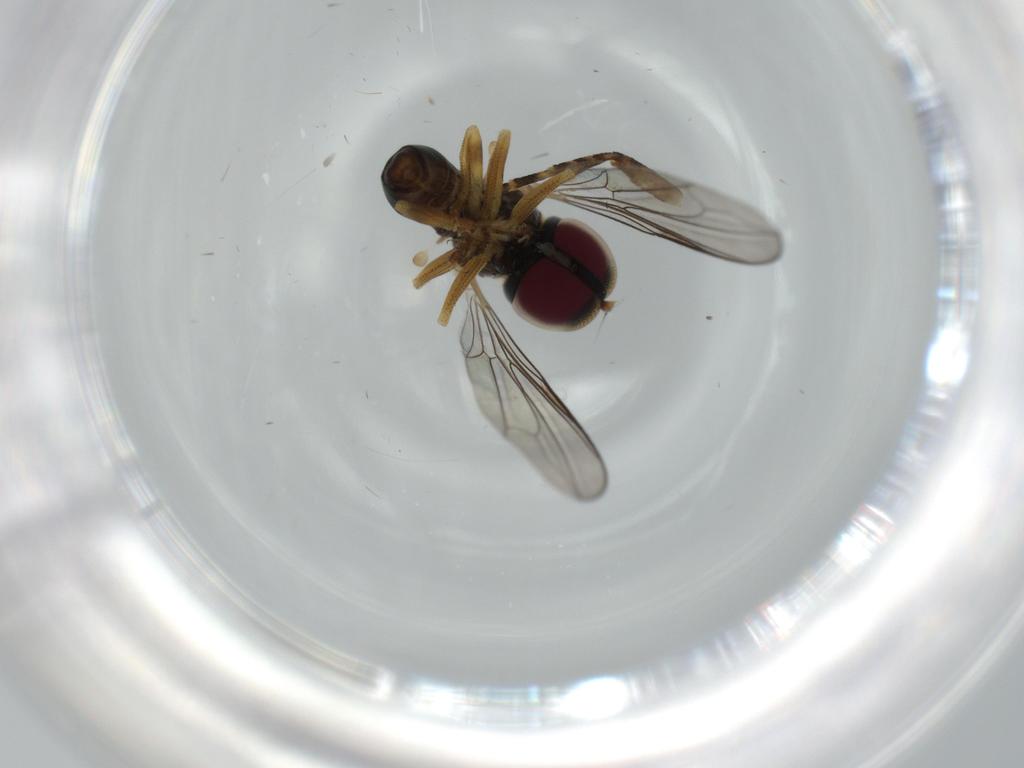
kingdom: Animalia
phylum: Arthropoda
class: Insecta
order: Diptera
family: Pipunculidae
